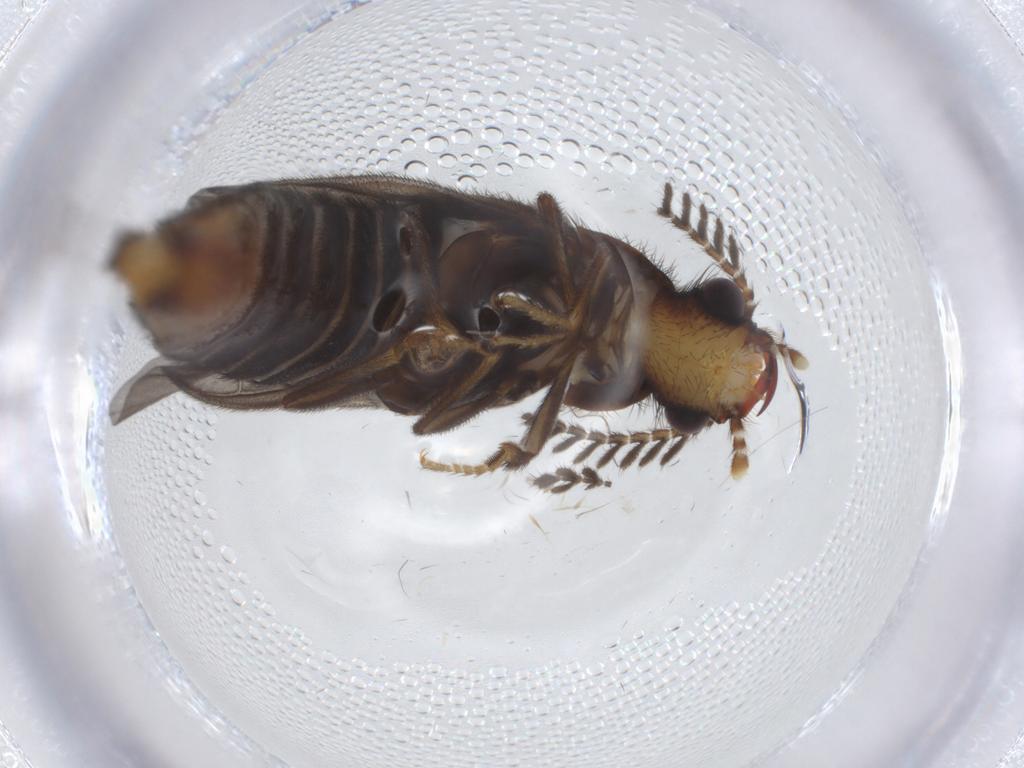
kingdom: Animalia
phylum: Arthropoda
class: Insecta
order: Coleoptera
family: Phengodidae
